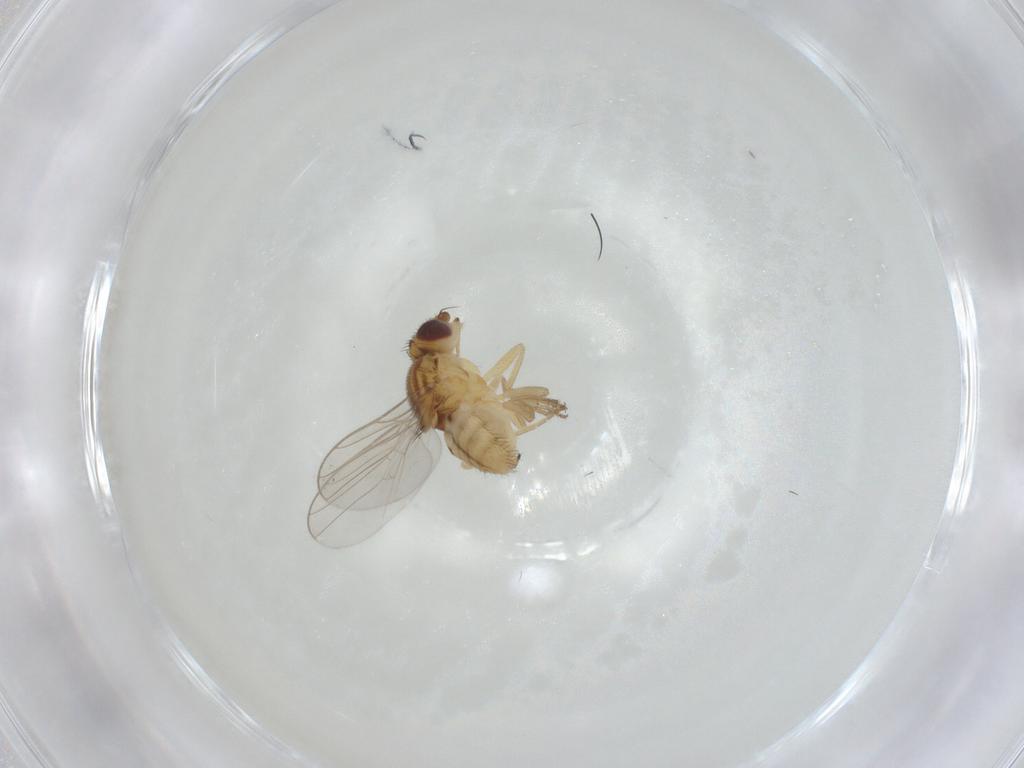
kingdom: Animalia
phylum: Arthropoda
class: Insecta
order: Diptera
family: Chloropidae
